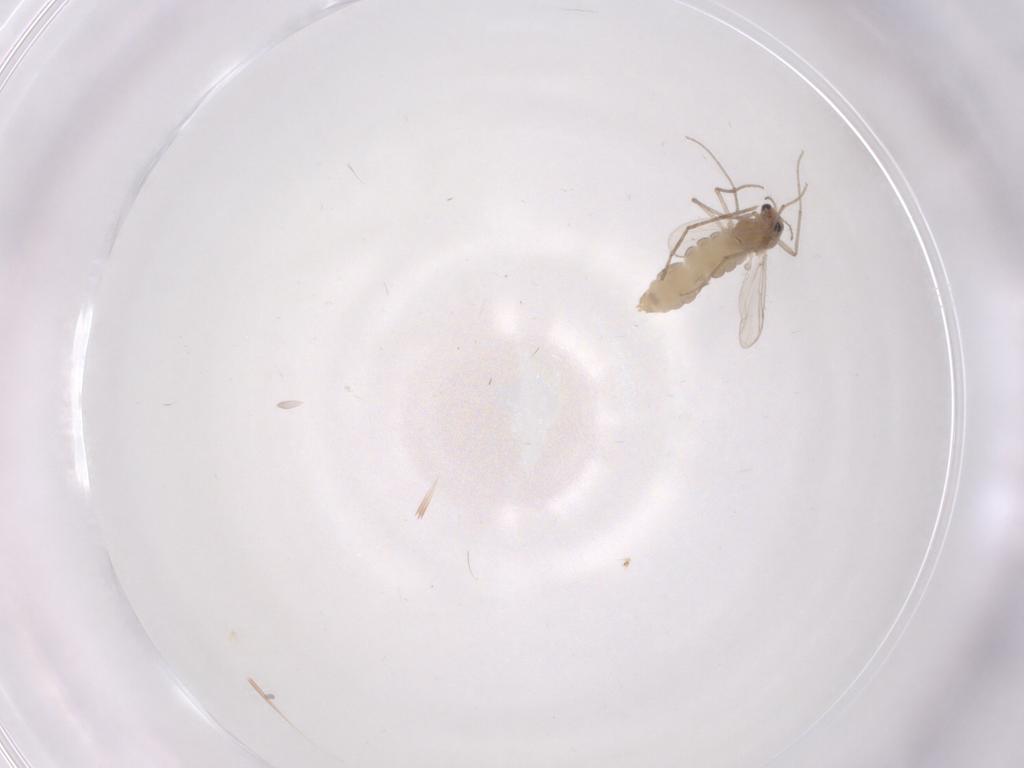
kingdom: Animalia
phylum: Arthropoda
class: Insecta
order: Diptera
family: Chironomidae
